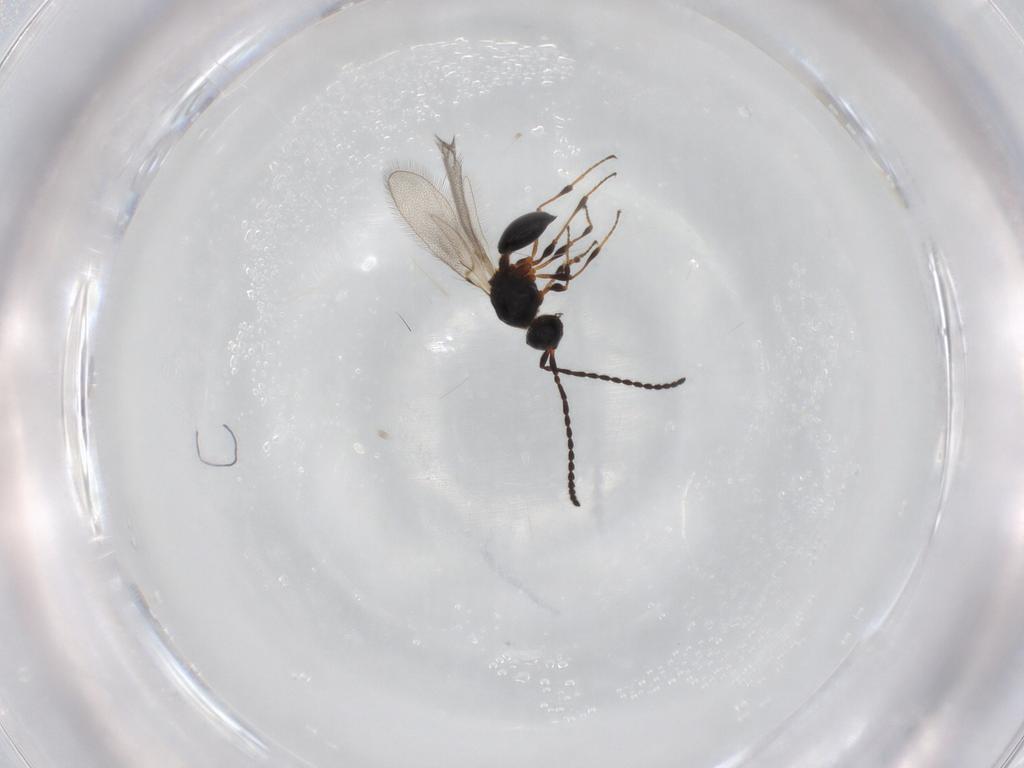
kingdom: Animalia
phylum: Arthropoda
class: Insecta
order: Hymenoptera
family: Diapriidae
